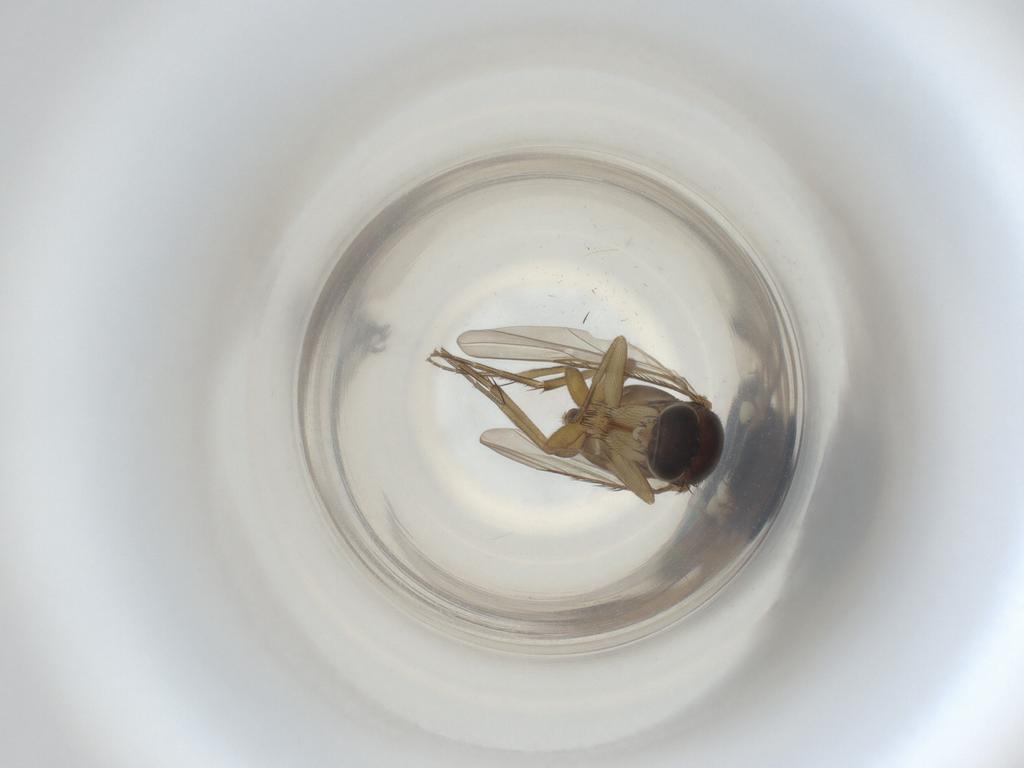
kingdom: Animalia
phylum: Arthropoda
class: Insecta
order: Diptera
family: Phoridae
